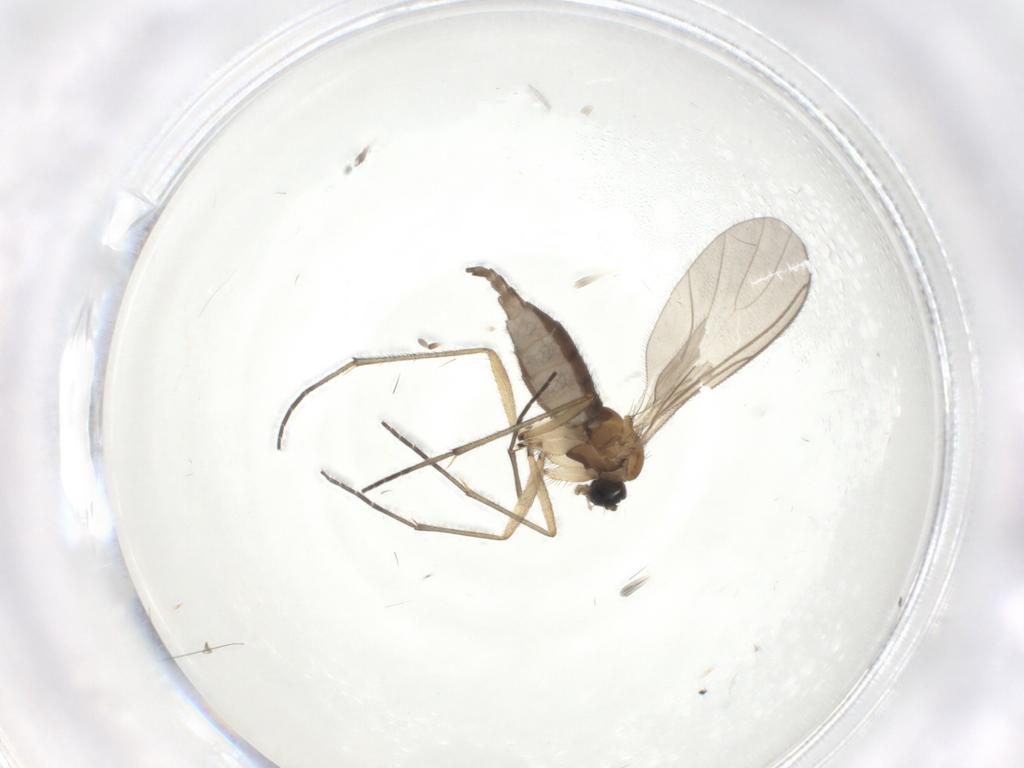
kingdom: Animalia
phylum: Arthropoda
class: Insecta
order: Diptera
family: Sciaridae
